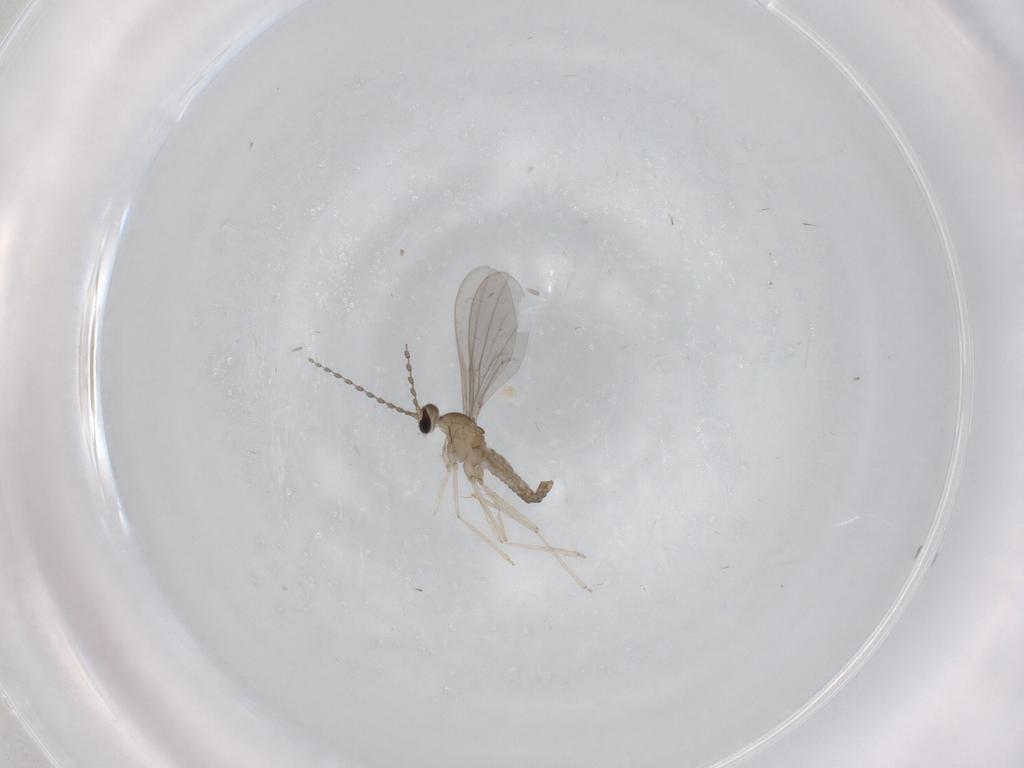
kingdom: Animalia
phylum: Arthropoda
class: Insecta
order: Diptera
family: Cecidomyiidae
